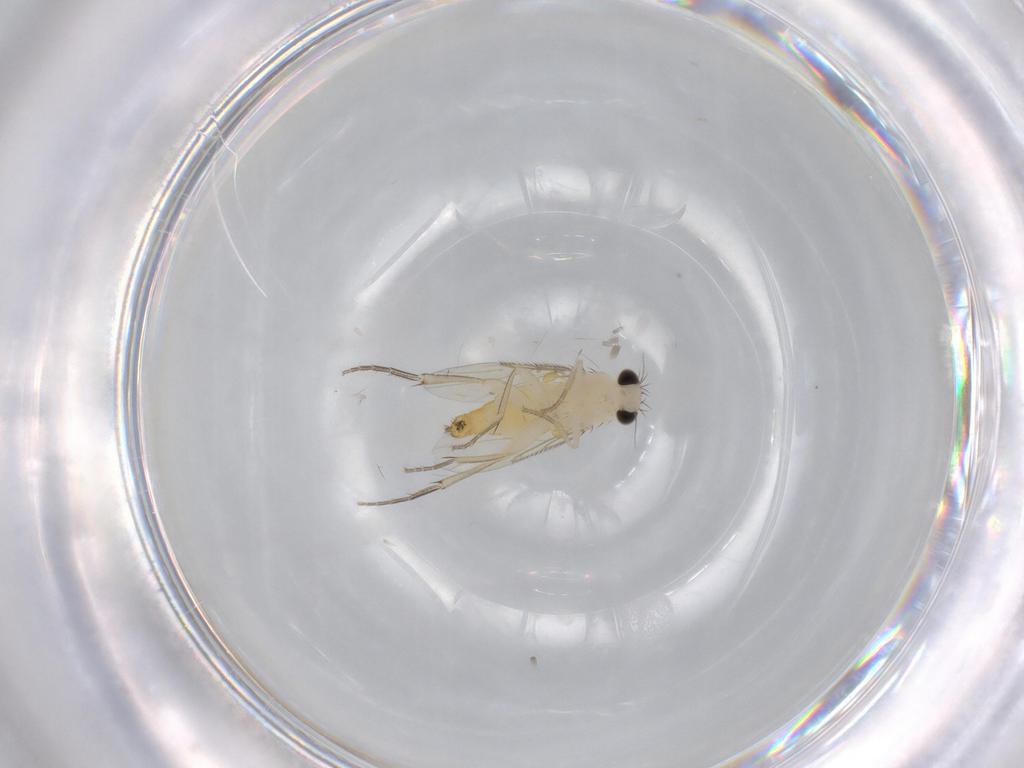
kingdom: Animalia
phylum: Arthropoda
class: Insecta
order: Diptera
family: Phoridae
